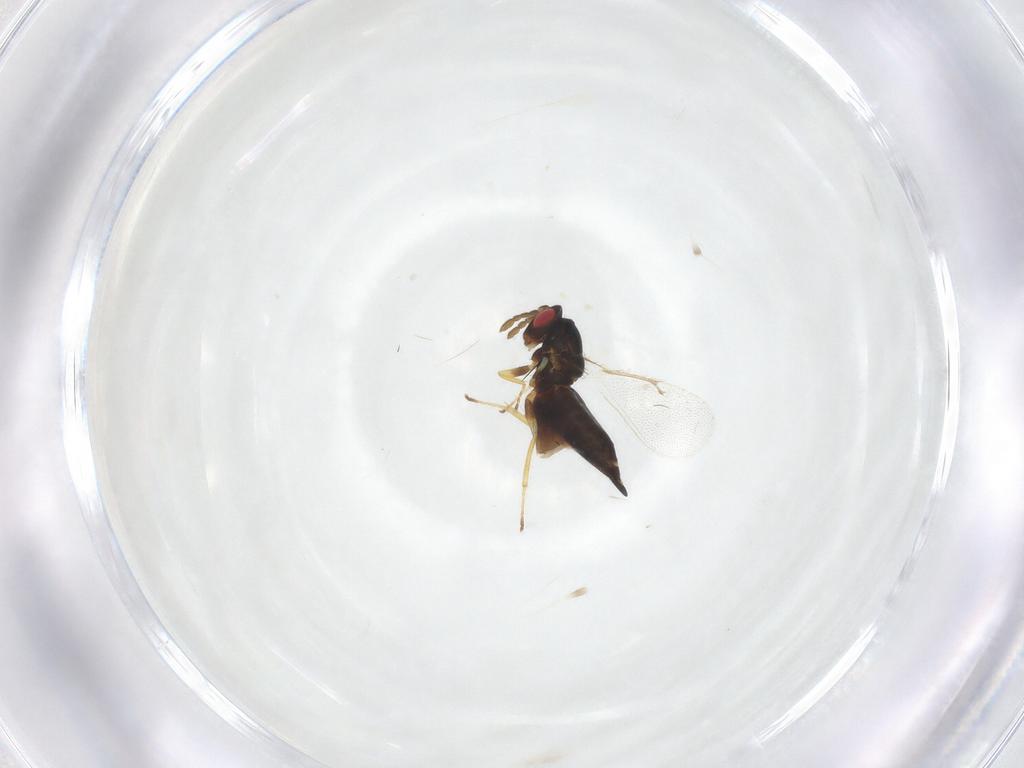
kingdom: Animalia
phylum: Arthropoda
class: Insecta
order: Hymenoptera
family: Eulophidae
